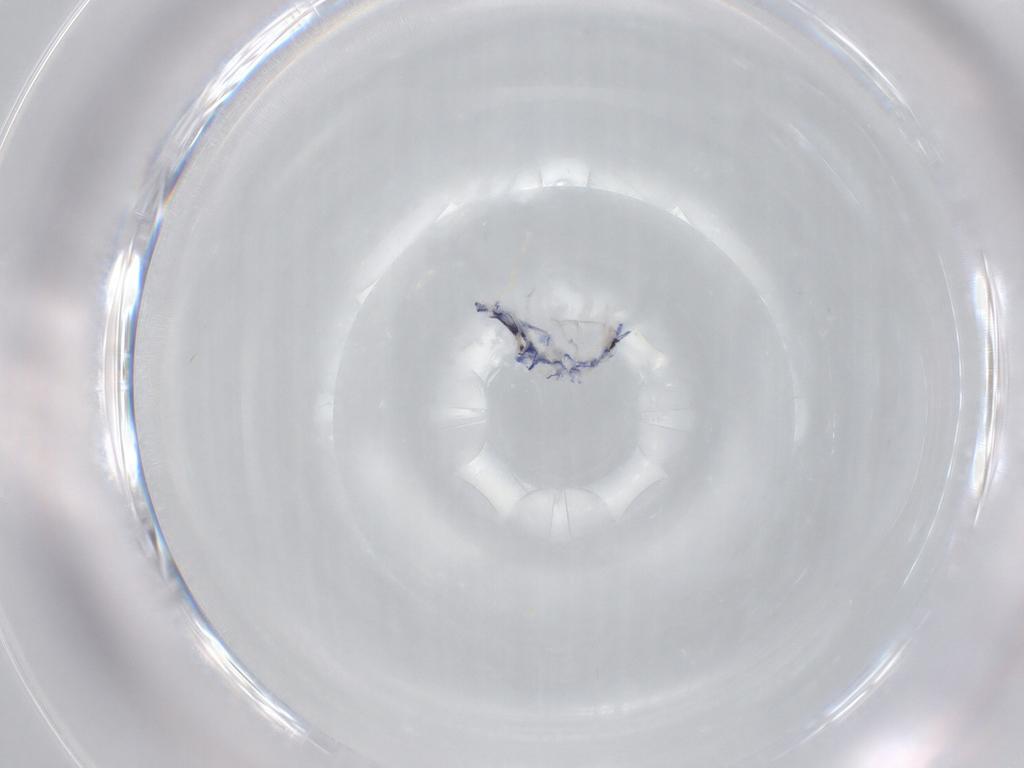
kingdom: Animalia
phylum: Arthropoda
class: Collembola
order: Entomobryomorpha
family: Entomobryidae
